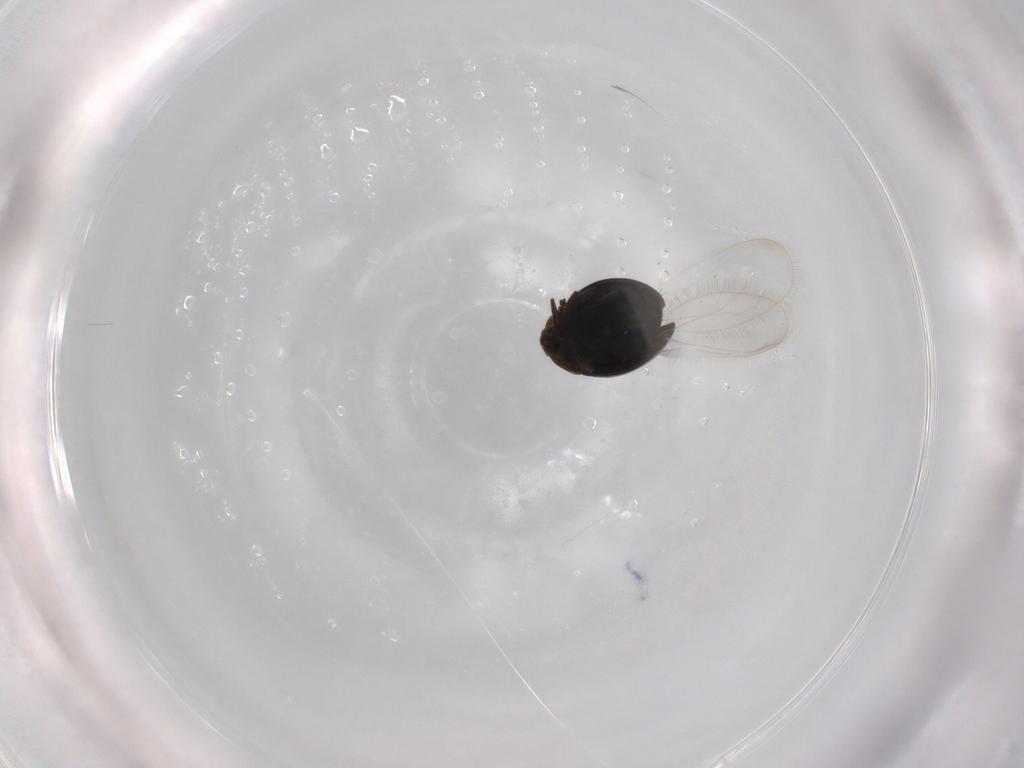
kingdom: Animalia
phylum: Arthropoda
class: Insecta
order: Coleoptera
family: Corylophidae
